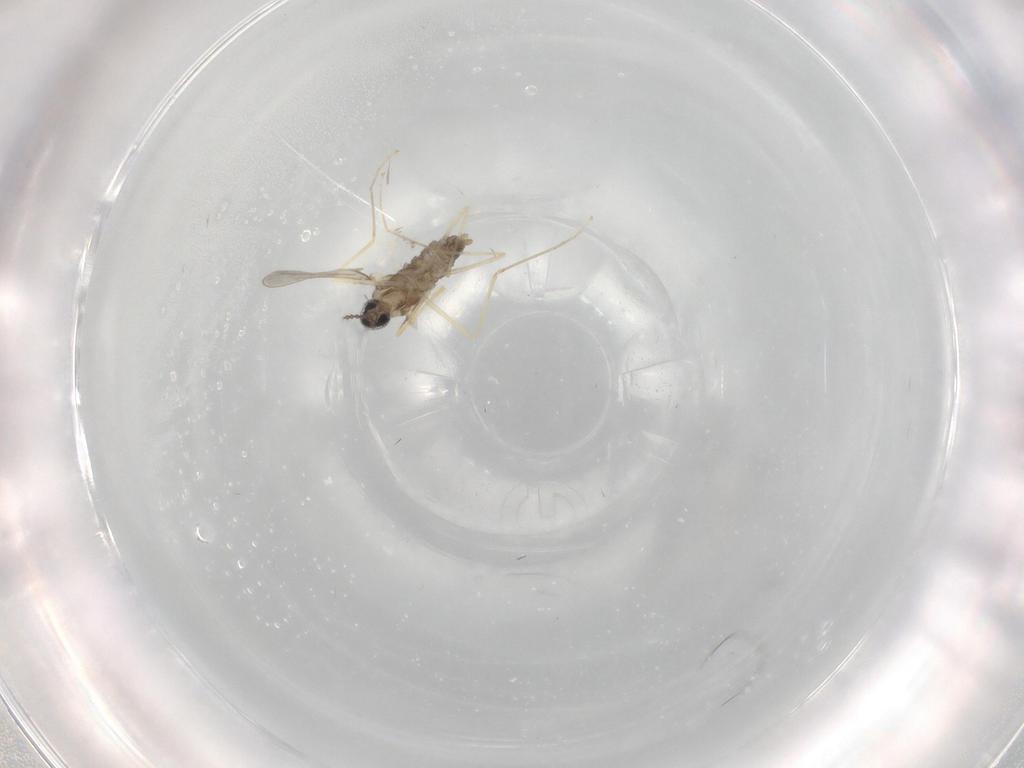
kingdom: Animalia
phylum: Arthropoda
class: Insecta
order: Diptera
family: Cecidomyiidae
